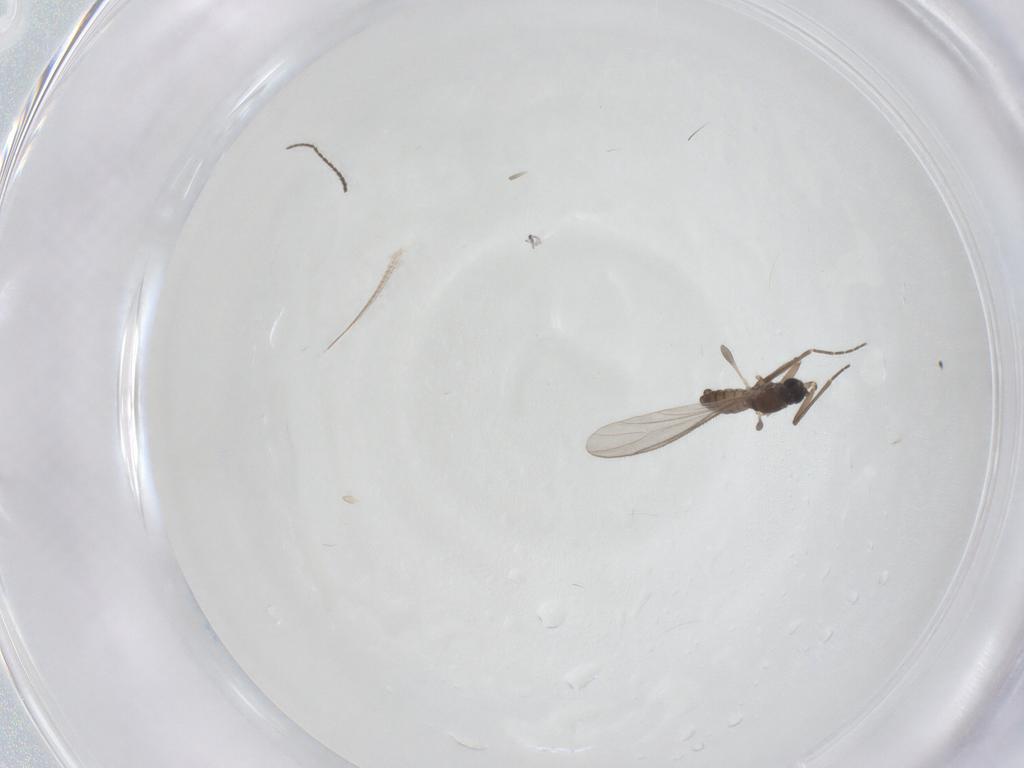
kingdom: Animalia
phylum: Arthropoda
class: Insecta
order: Diptera
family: Sciaridae
